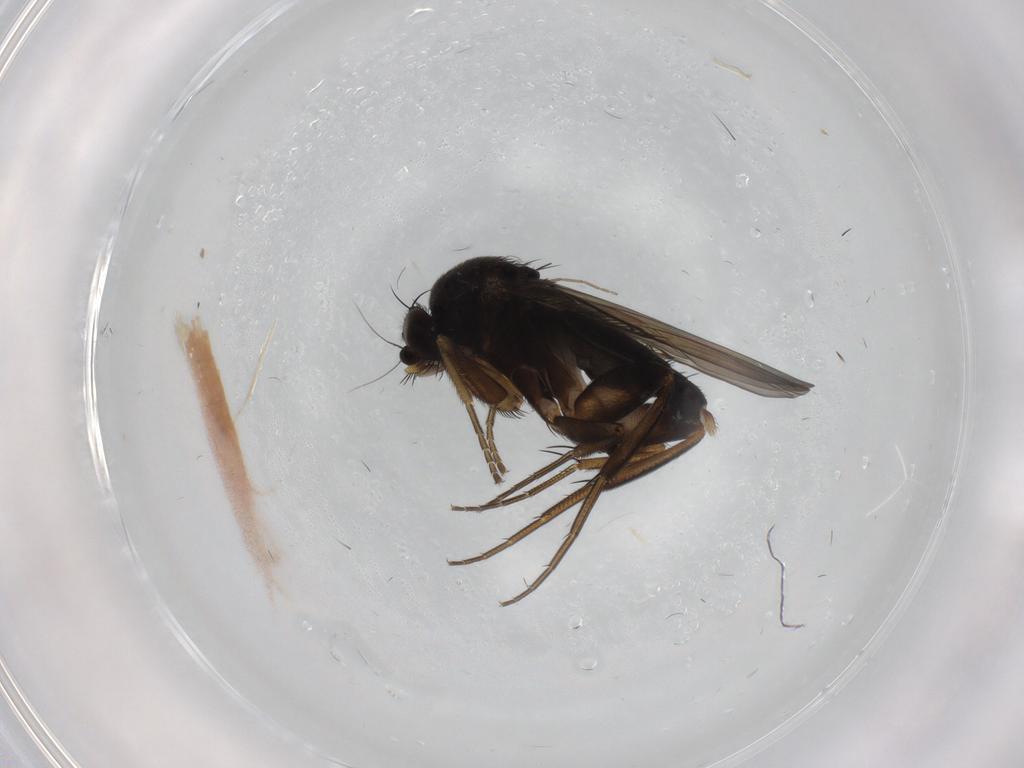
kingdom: Animalia
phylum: Arthropoda
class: Insecta
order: Diptera
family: Phoridae
